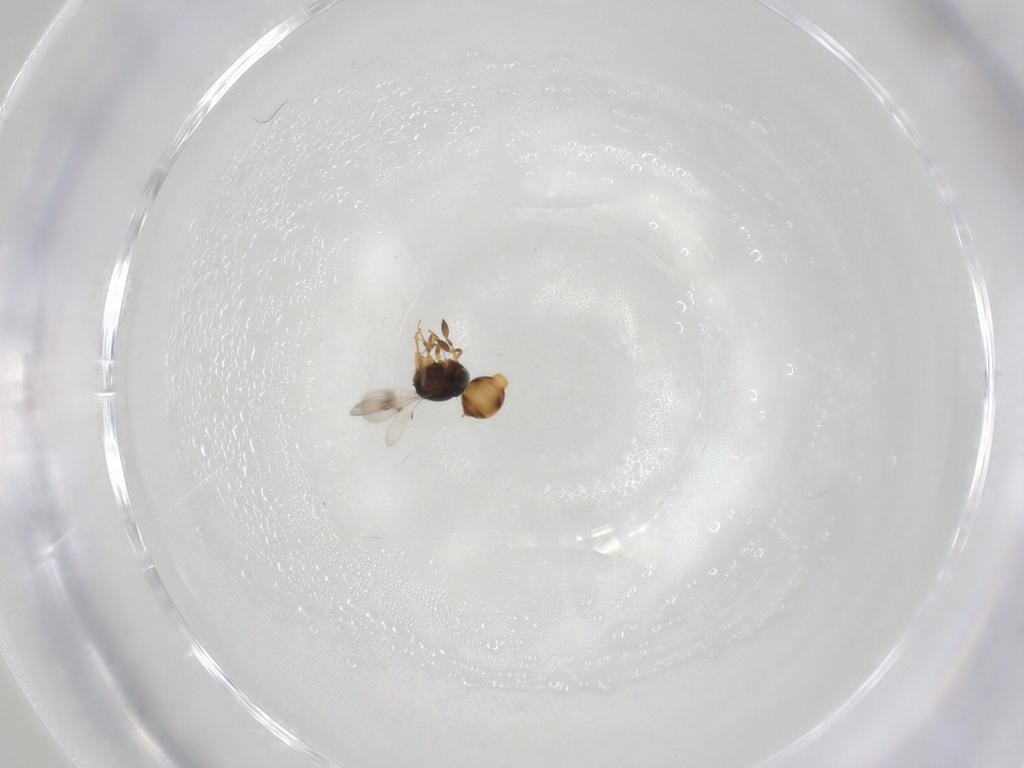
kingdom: Animalia
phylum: Arthropoda
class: Insecta
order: Hymenoptera
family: Scelionidae
